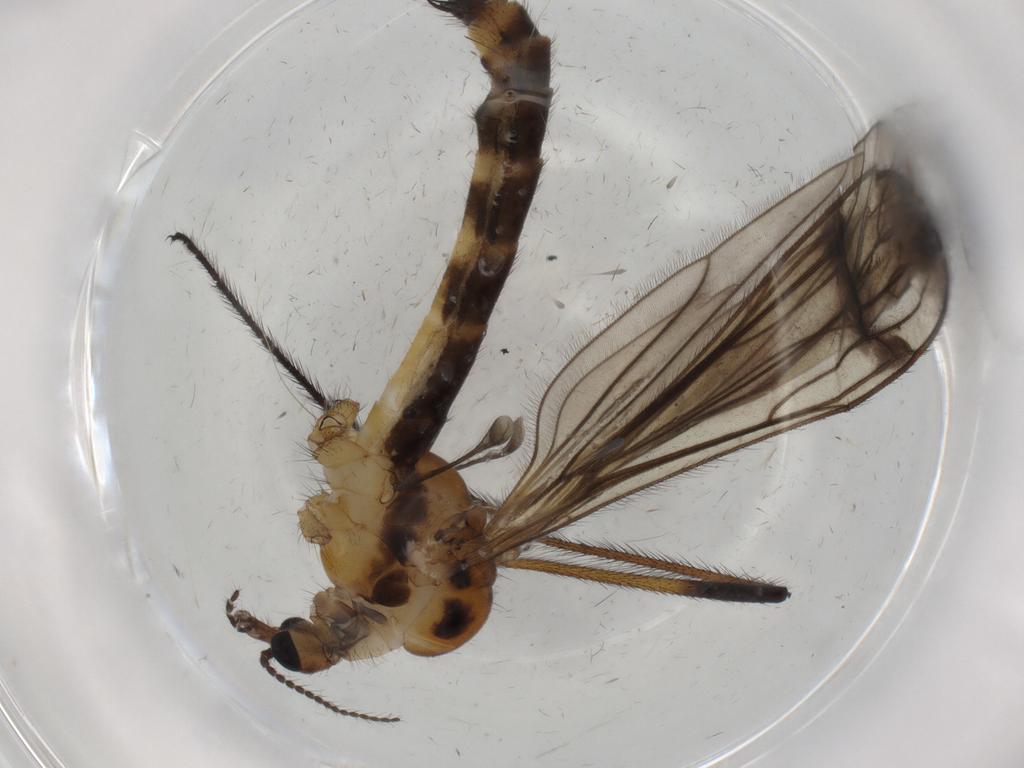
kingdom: Animalia
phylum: Arthropoda
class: Insecta
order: Diptera
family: Limoniidae
